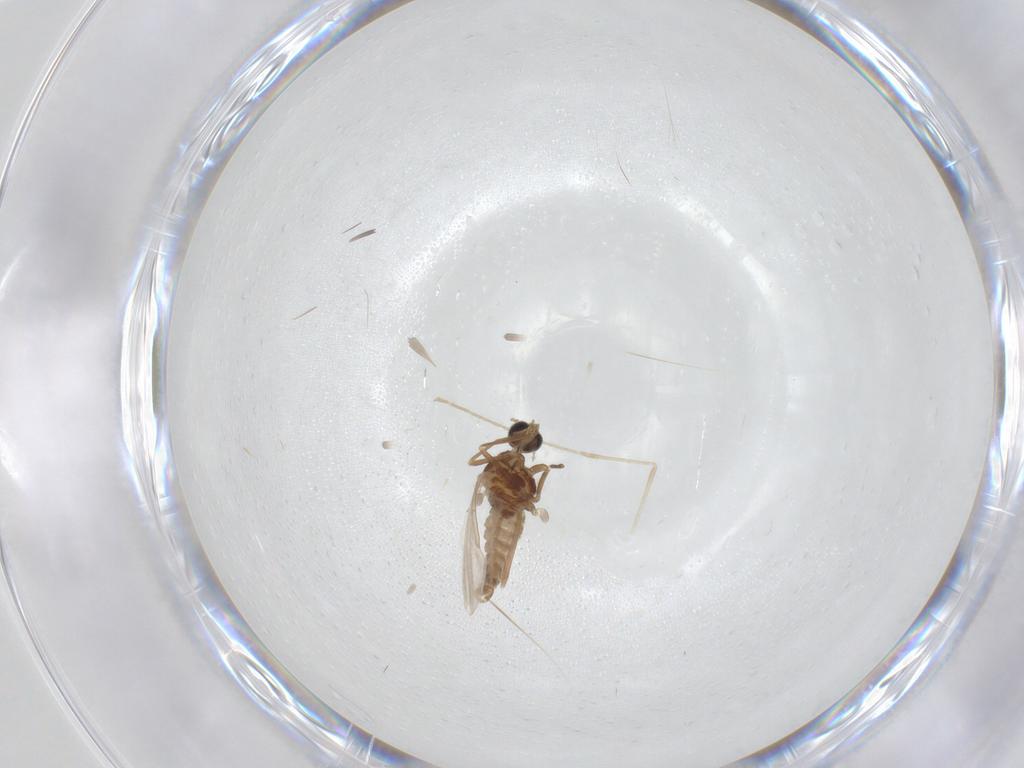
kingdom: Animalia
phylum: Arthropoda
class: Insecta
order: Diptera
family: Cecidomyiidae
